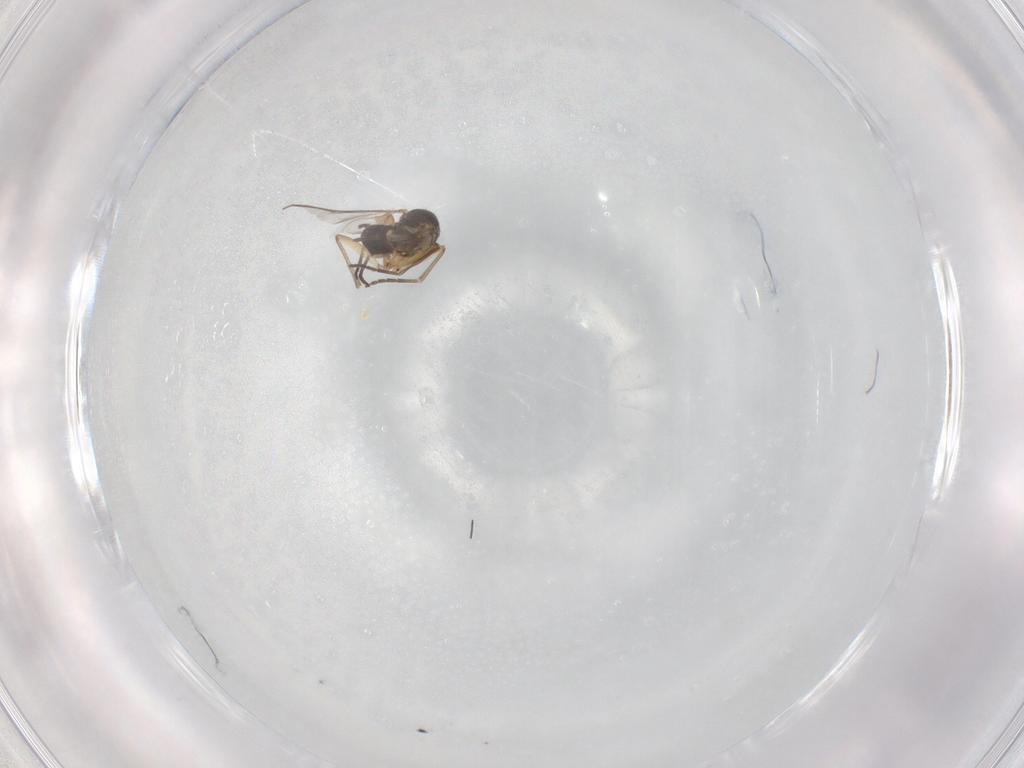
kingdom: Animalia
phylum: Arthropoda
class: Insecta
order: Diptera
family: Sciaridae
